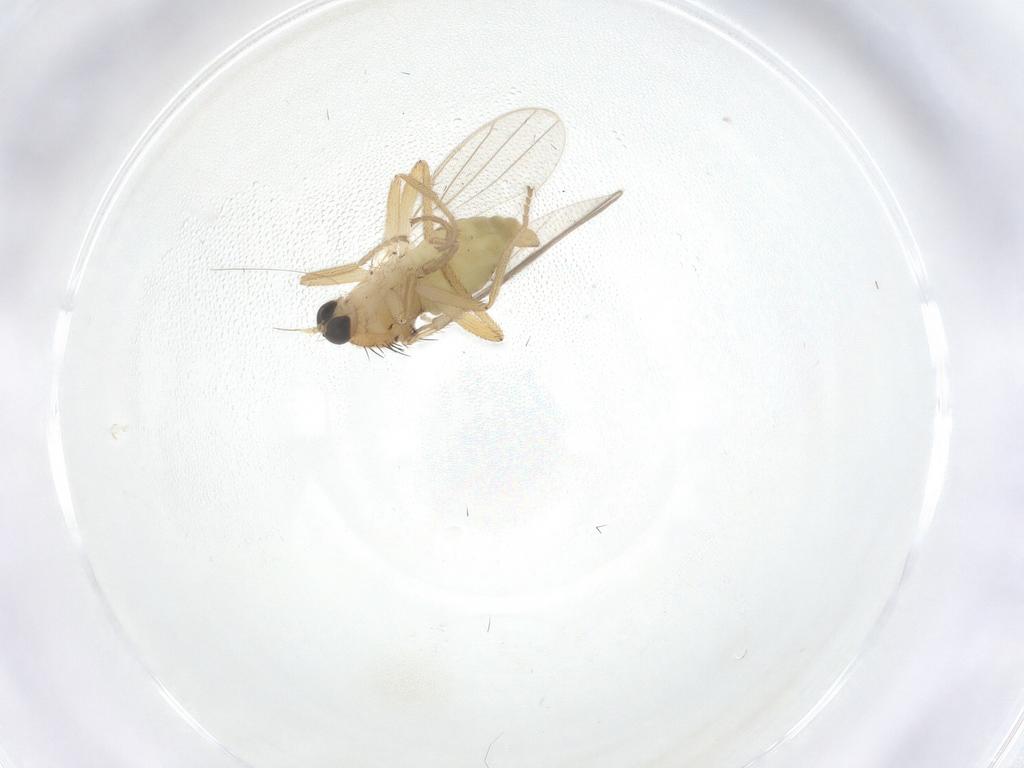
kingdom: Animalia
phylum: Arthropoda
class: Insecta
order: Diptera
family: Hybotidae
